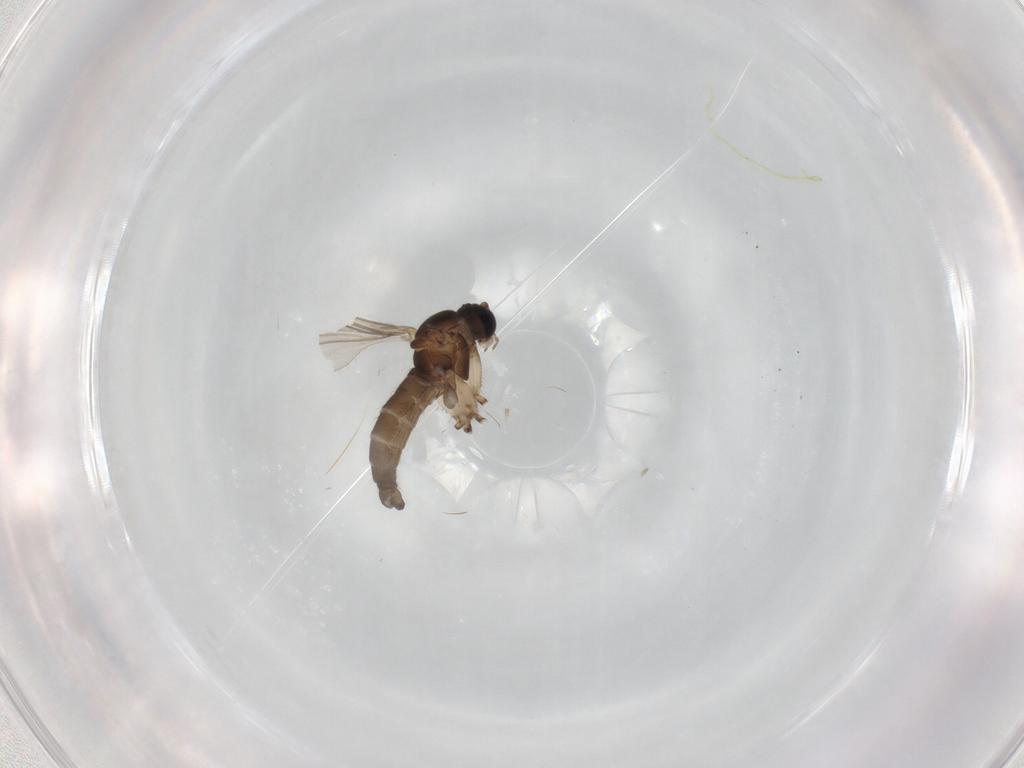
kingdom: Animalia
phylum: Arthropoda
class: Insecta
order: Diptera
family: Sciaridae
